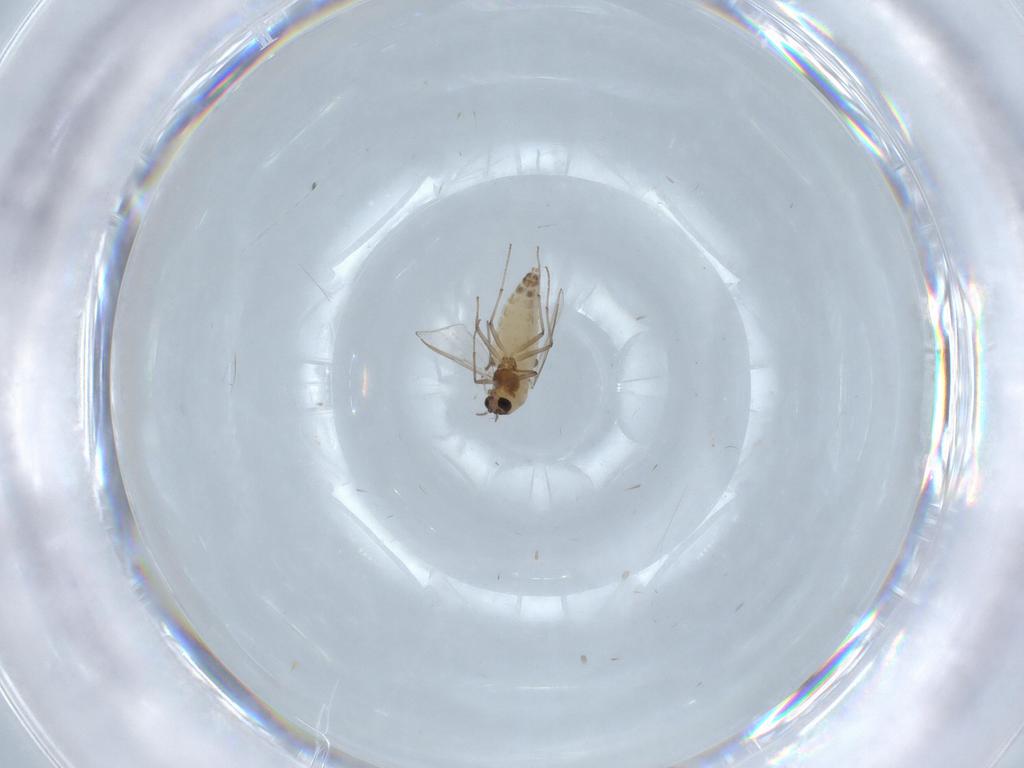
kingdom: Animalia
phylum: Arthropoda
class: Insecta
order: Diptera
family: Chironomidae
